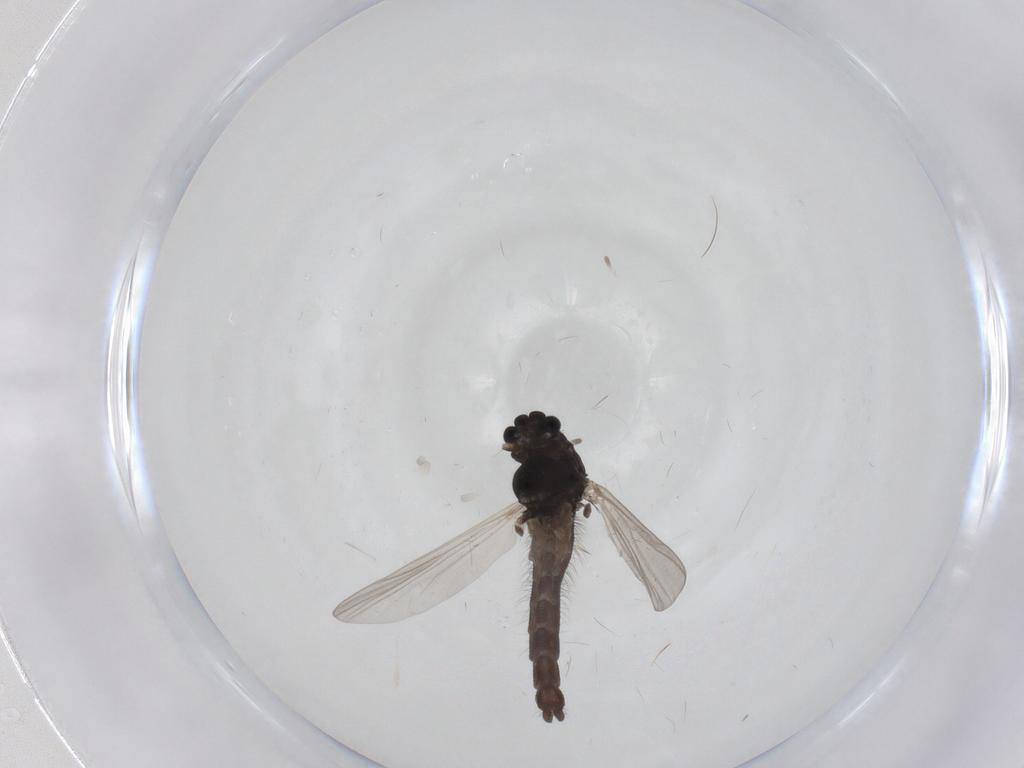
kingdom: Animalia
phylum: Arthropoda
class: Insecta
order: Diptera
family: Chironomidae
